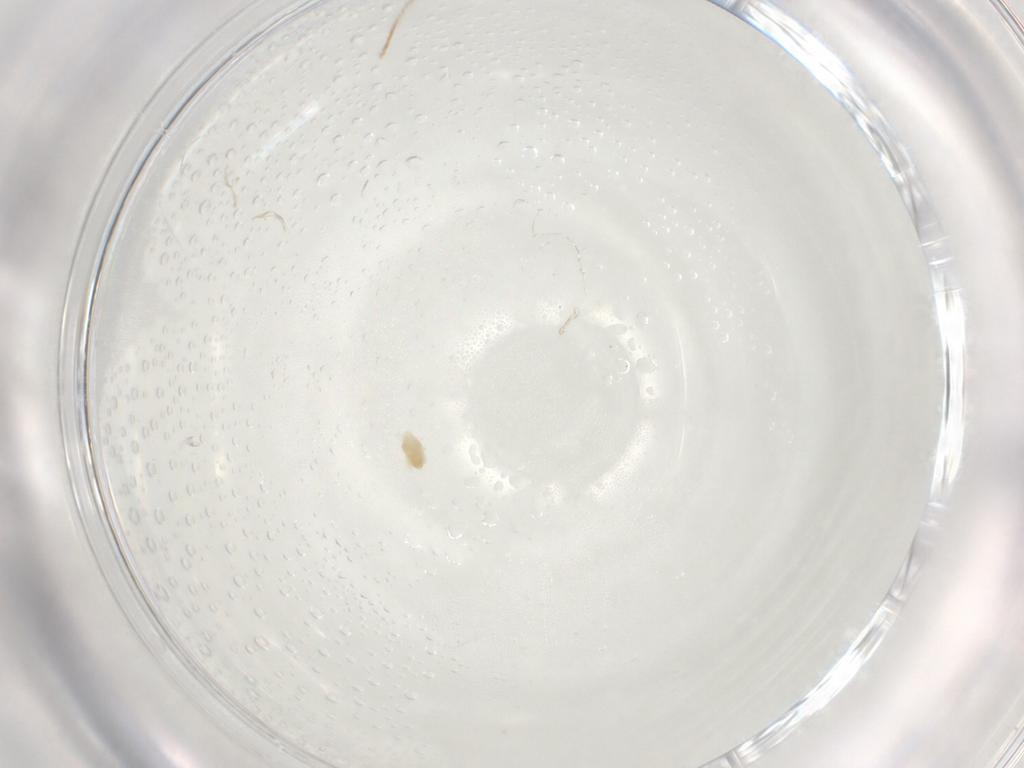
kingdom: Animalia
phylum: Arthropoda
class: Arachnida
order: Trombidiformes
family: Eupodidae
